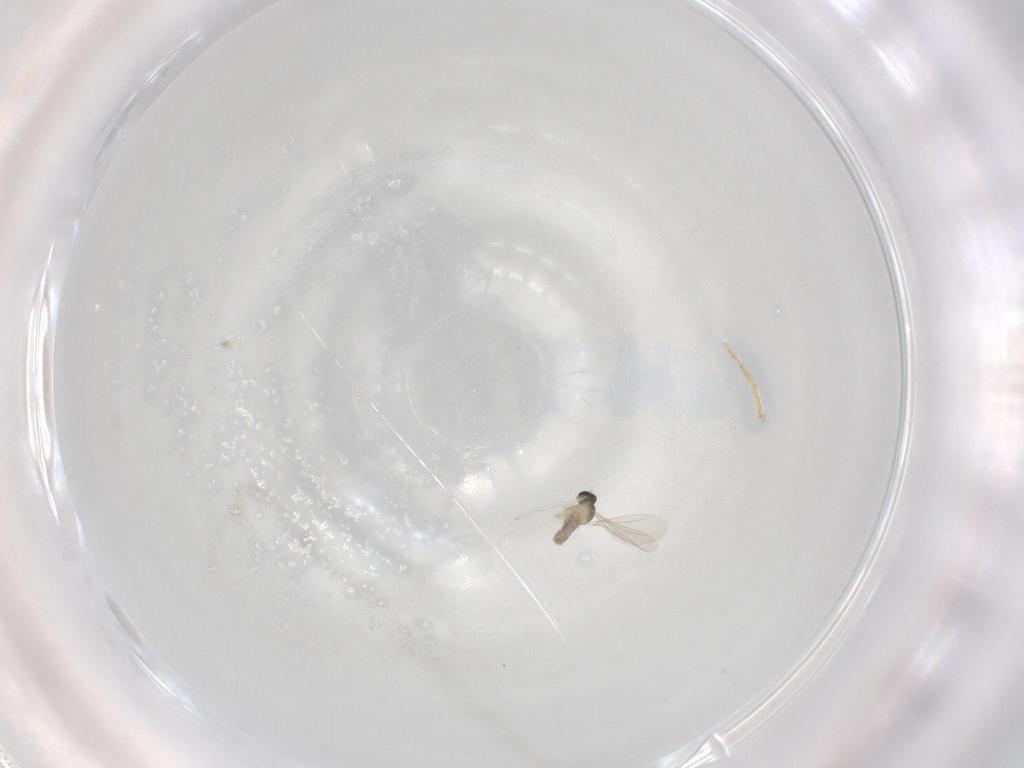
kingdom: Animalia
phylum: Arthropoda
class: Insecta
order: Diptera
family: Cecidomyiidae
